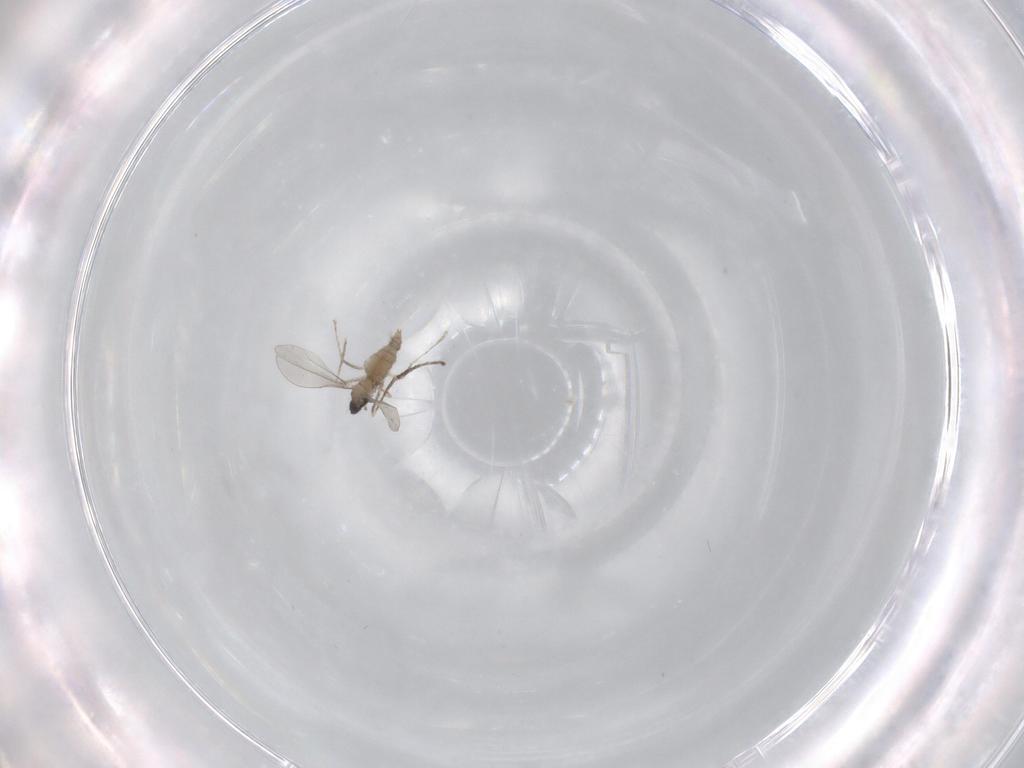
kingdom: Animalia
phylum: Arthropoda
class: Insecta
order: Diptera
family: Cecidomyiidae
